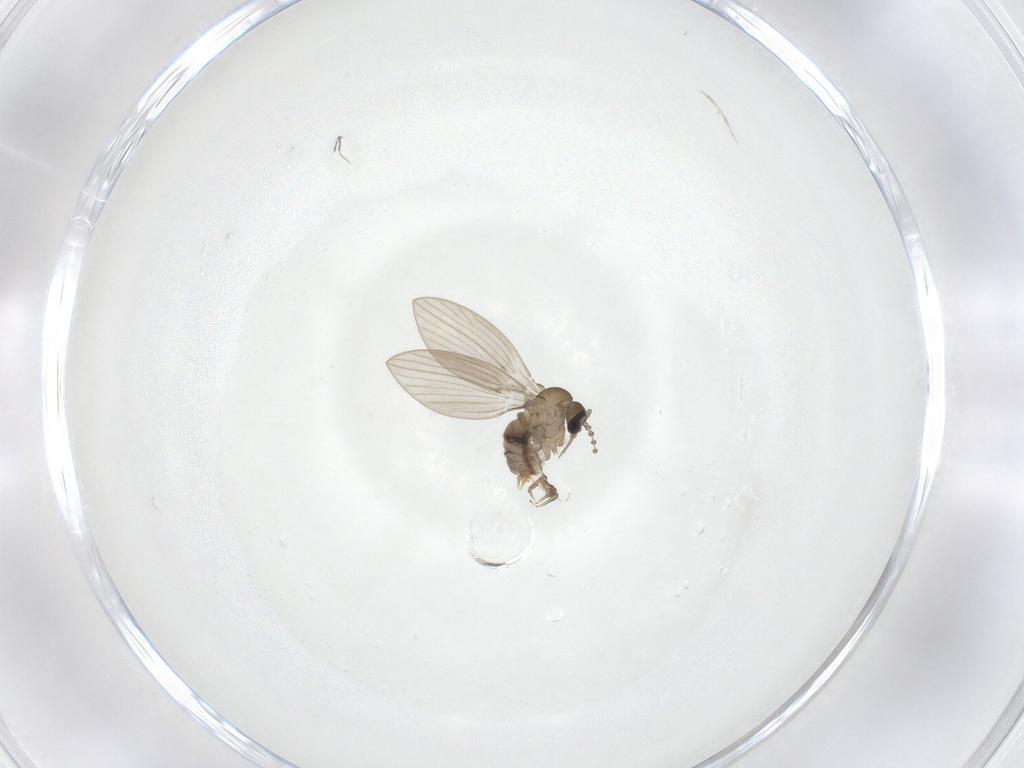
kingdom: Animalia
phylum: Arthropoda
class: Insecta
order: Diptera
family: Psychodidae
